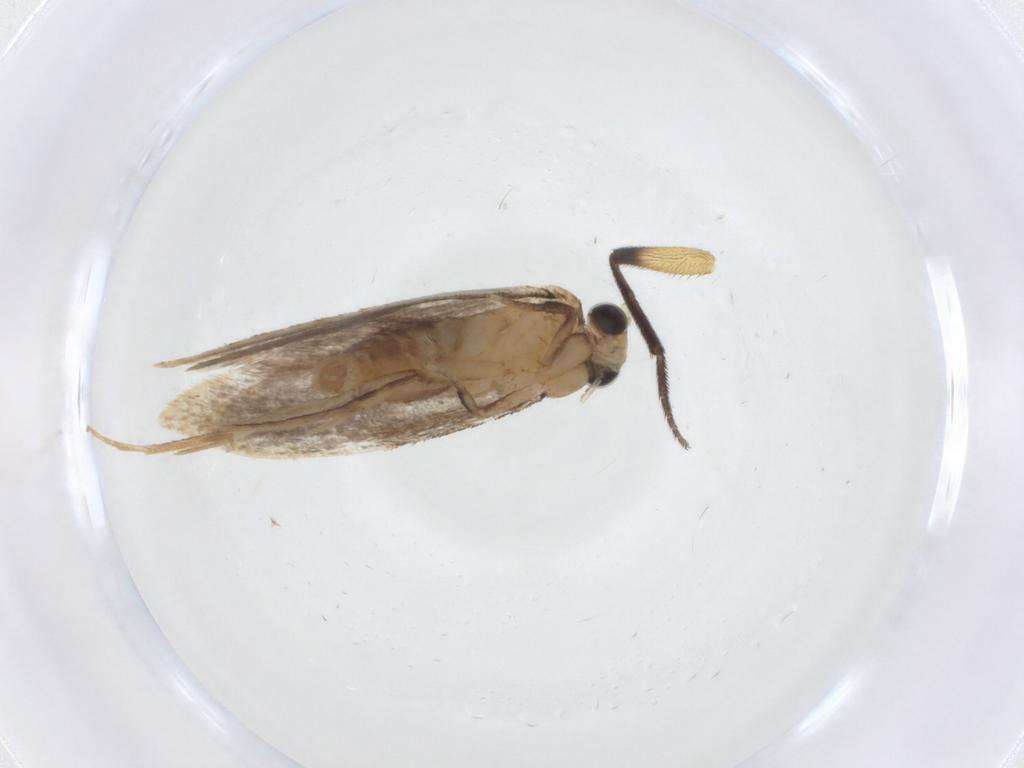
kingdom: Animalia
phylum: Arthropoda
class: Insecta
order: Lepidoptera
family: Tineidae
